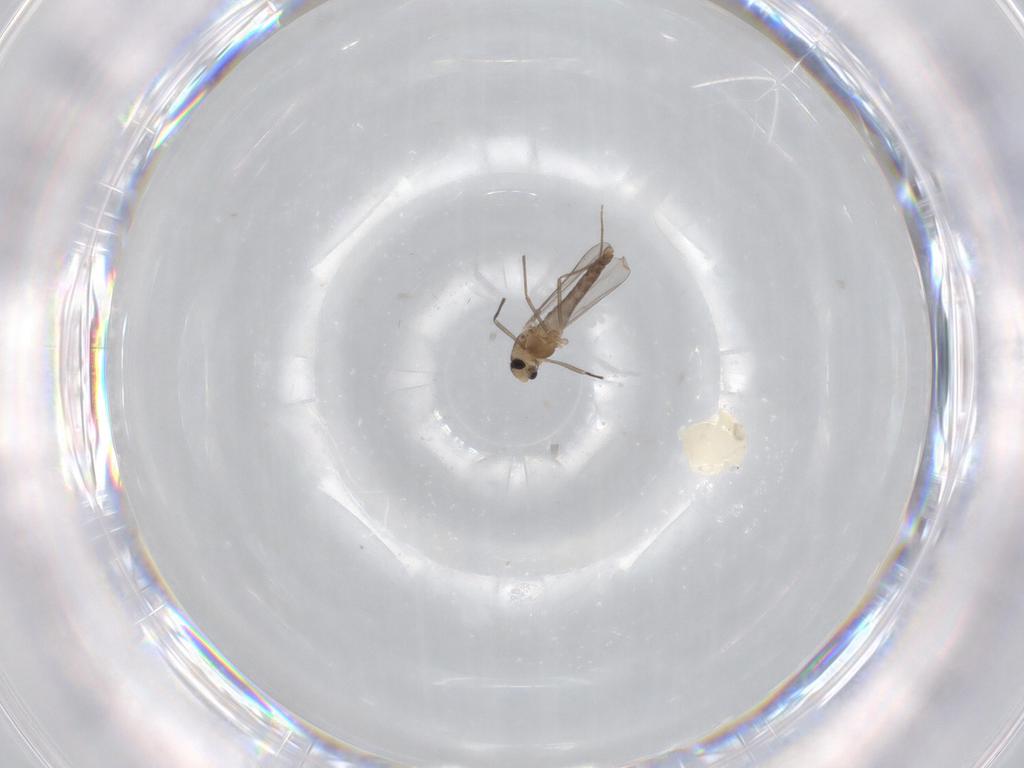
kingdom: Animalia
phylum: Arthropoda
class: Insecta
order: Diptera
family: Chironomidae
